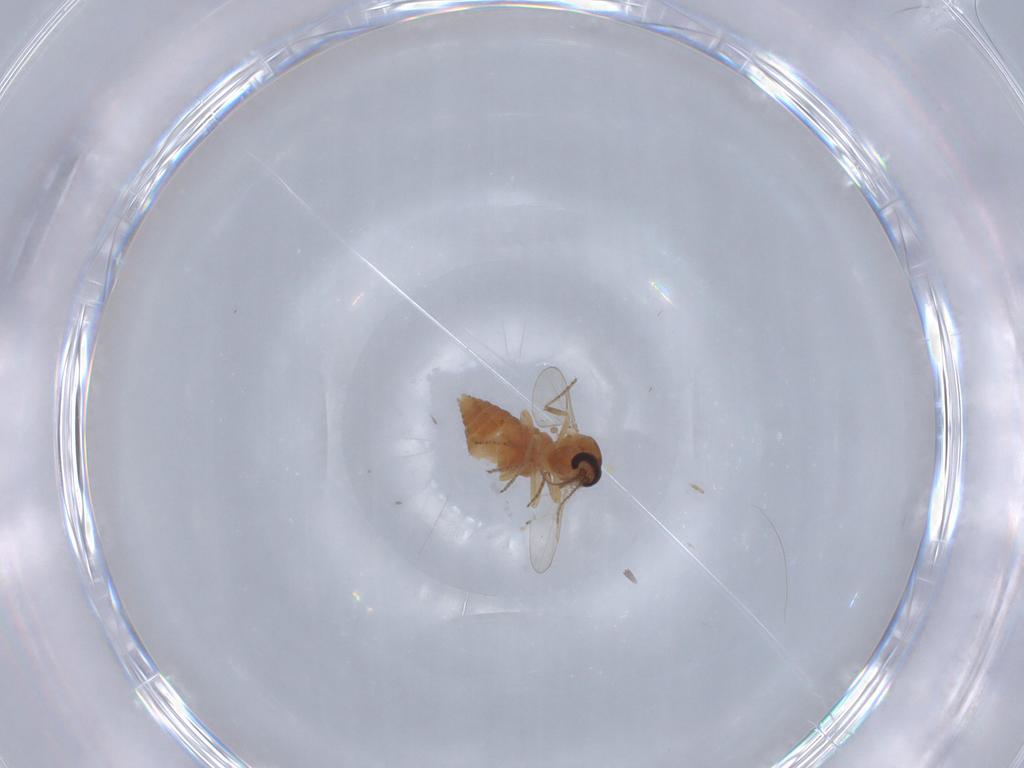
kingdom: Animalia
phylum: Arthropoda
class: Insecta
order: Diptera
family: Ceratopogonidae
